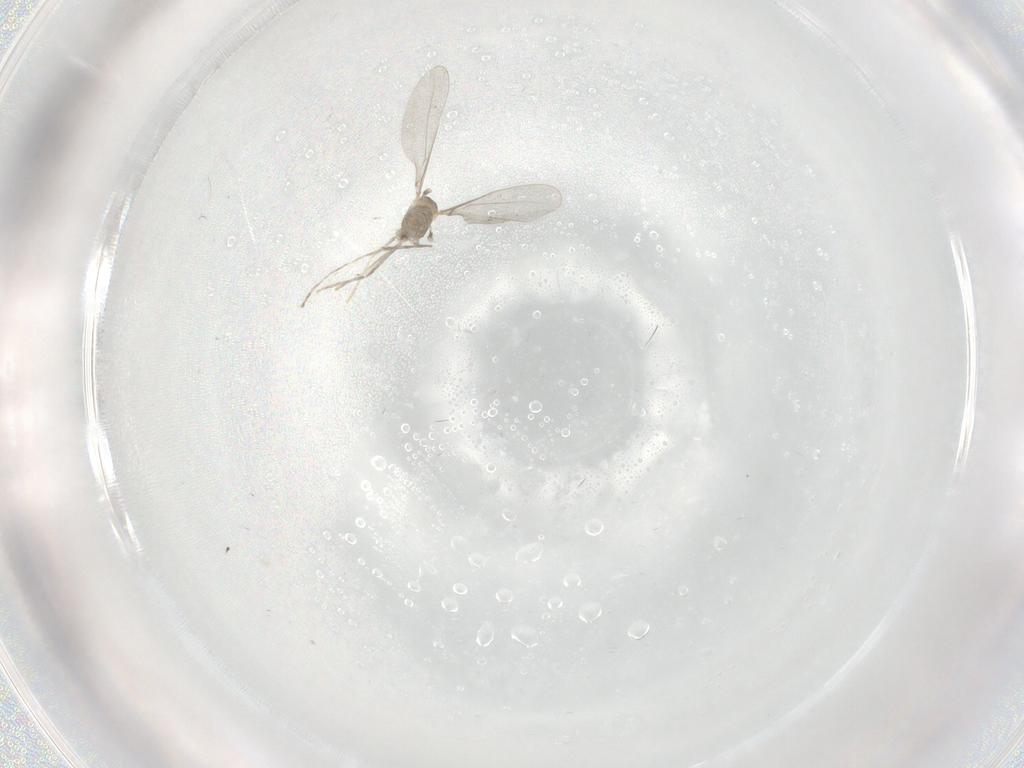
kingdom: Animalia
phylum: Arthropoda
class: Insecta
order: Diptera
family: Cecidomyiidae
